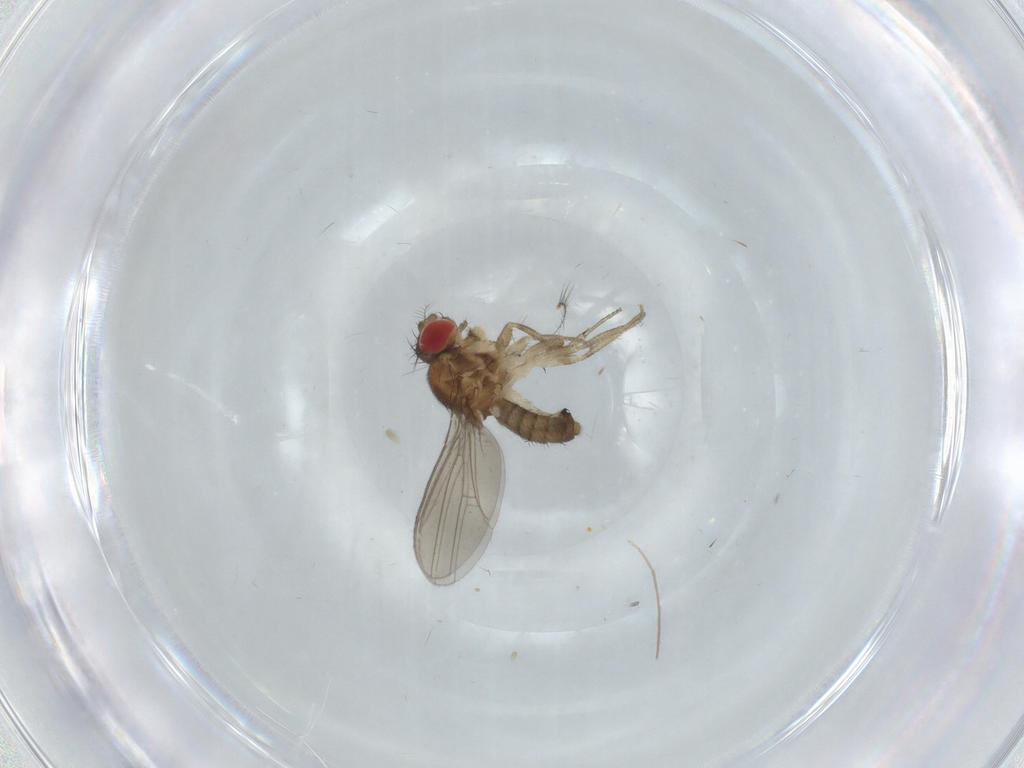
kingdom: Animalia
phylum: Arthropoda
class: Insecta
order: Diptera
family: Drosophilidae
